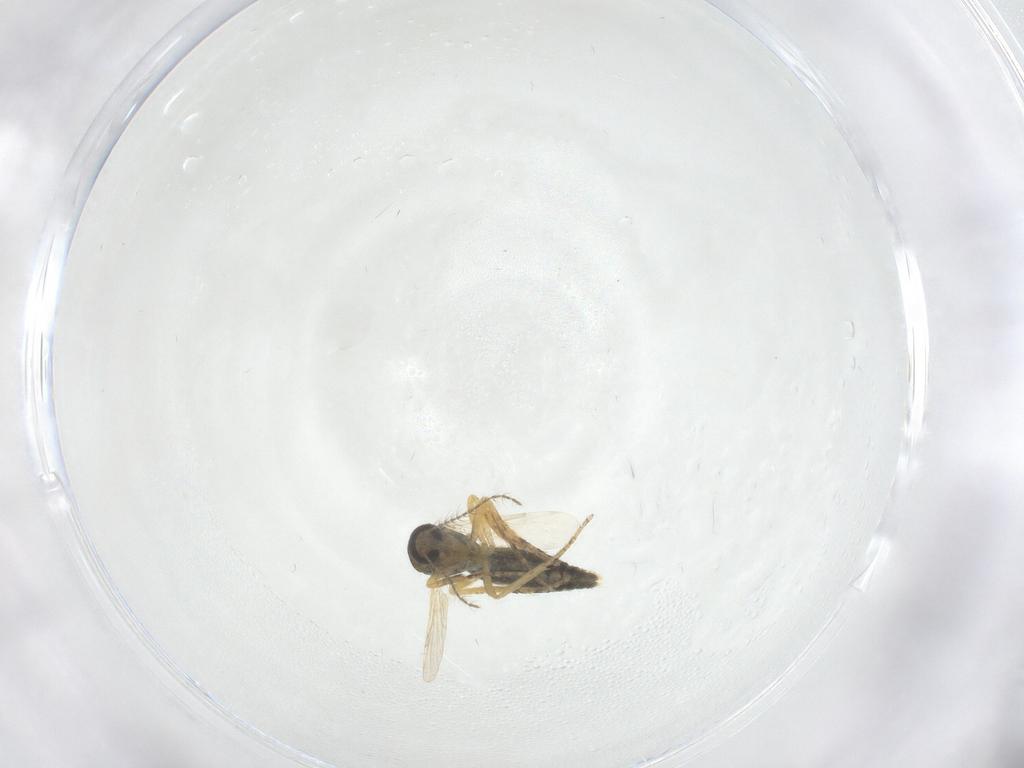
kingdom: Animalia
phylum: Arthropoda
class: Insecta
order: Diptera
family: Ceratopogonidae
